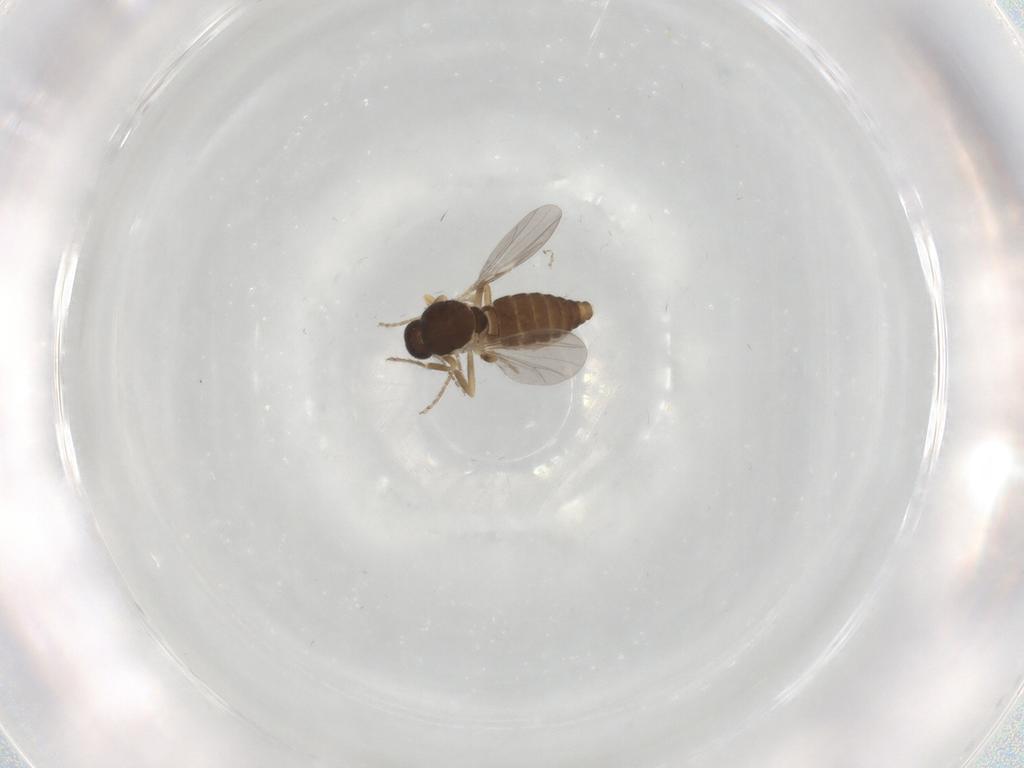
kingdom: Animalia
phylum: Arthropoda
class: Insecta
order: Diptera
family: Ceratopogonidae
